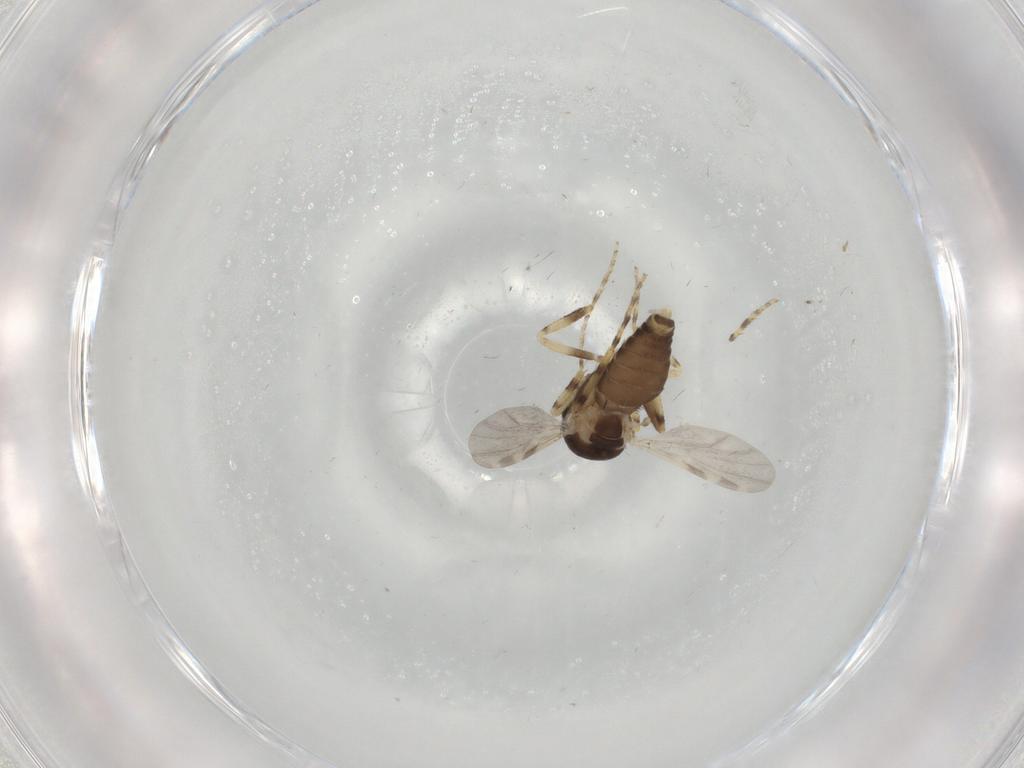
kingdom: Animalia
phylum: Arthropoda
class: Insecta
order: Diptera
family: Ceratopogonidae
